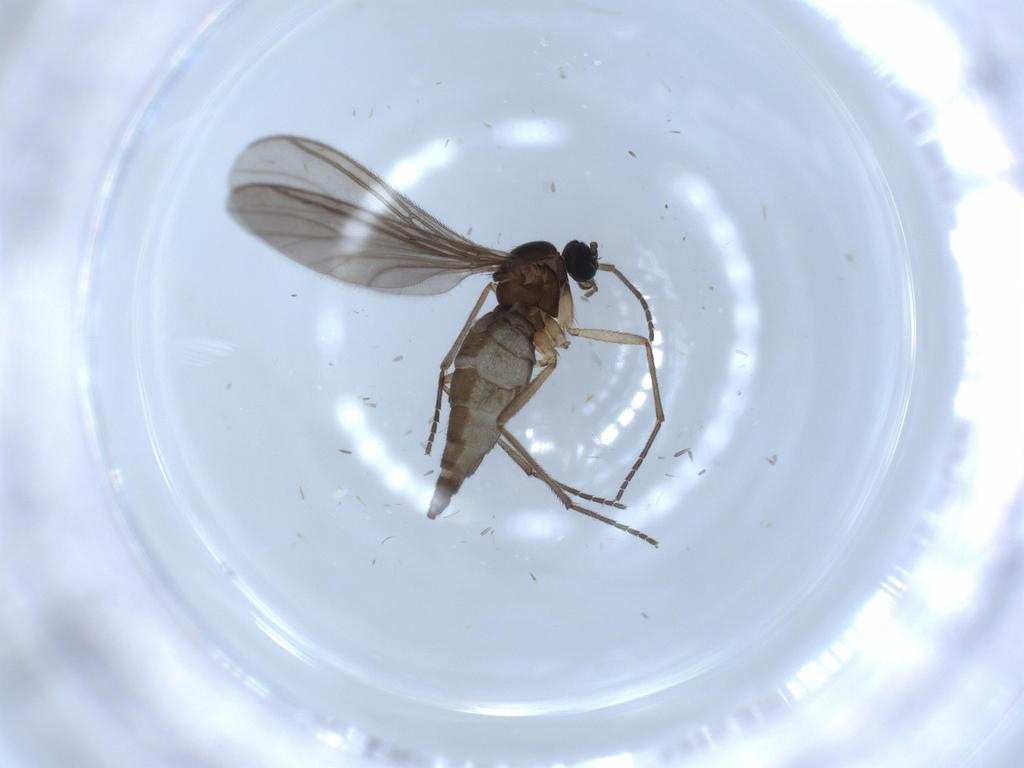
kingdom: Animalia
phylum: Arthropoda
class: Insecta
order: Diptera
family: Sciaridae
